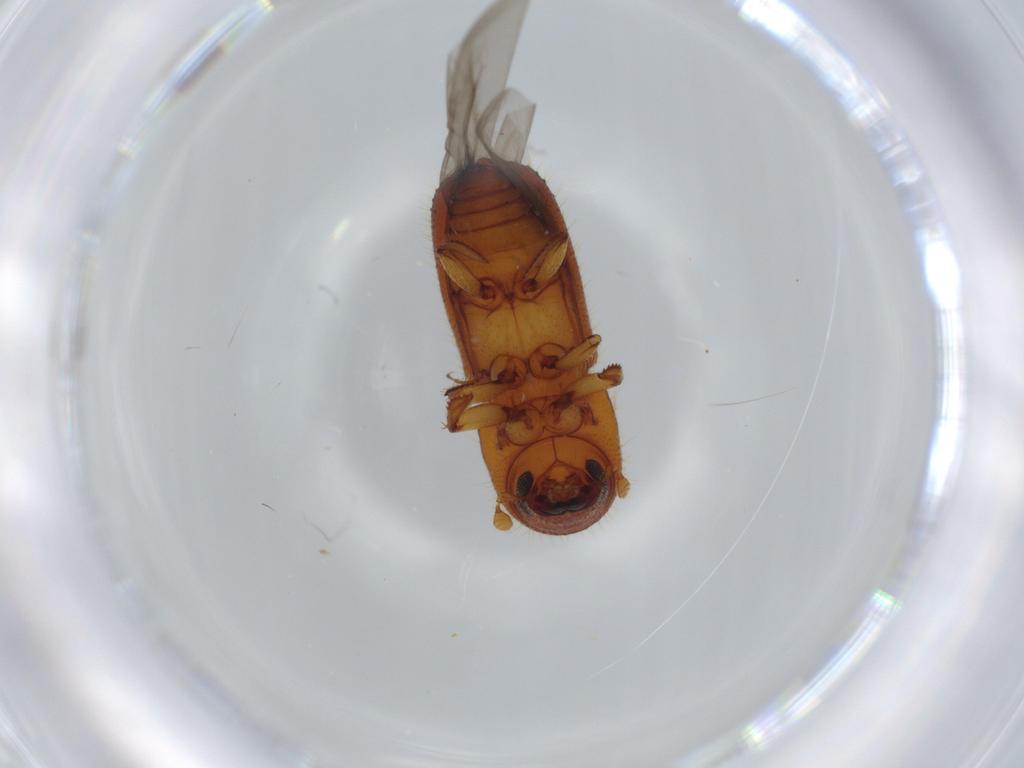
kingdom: Animalia
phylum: Arthropoda
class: Insecta
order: Coleoptera
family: Curculionidae
